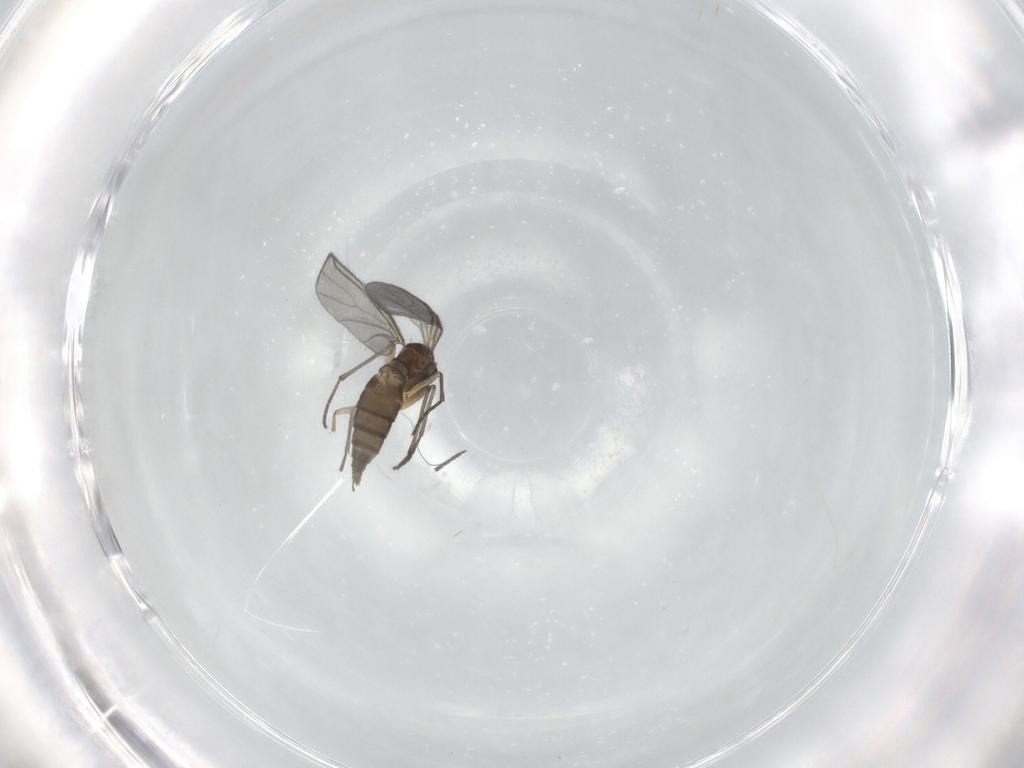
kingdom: Animalia
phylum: Arthropoda
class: Insecta
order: Diptera
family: Sciaridae
